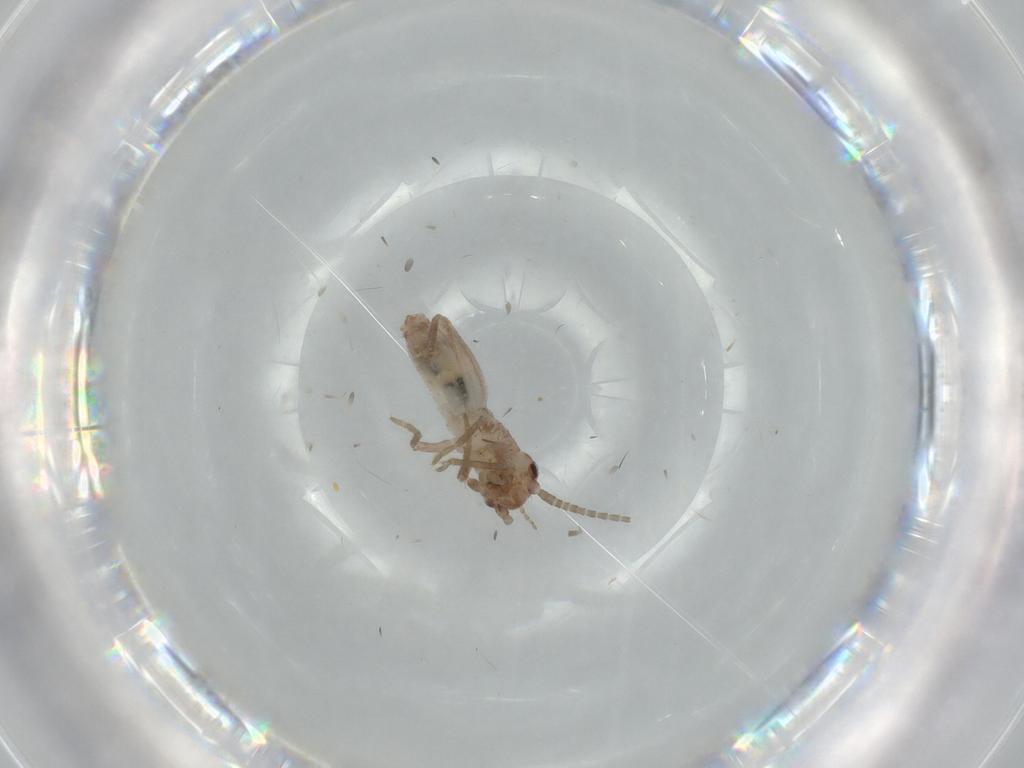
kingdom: Animalia
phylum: Arthropoda
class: Insecta
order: Orthoptera
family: Mogoplistidae
